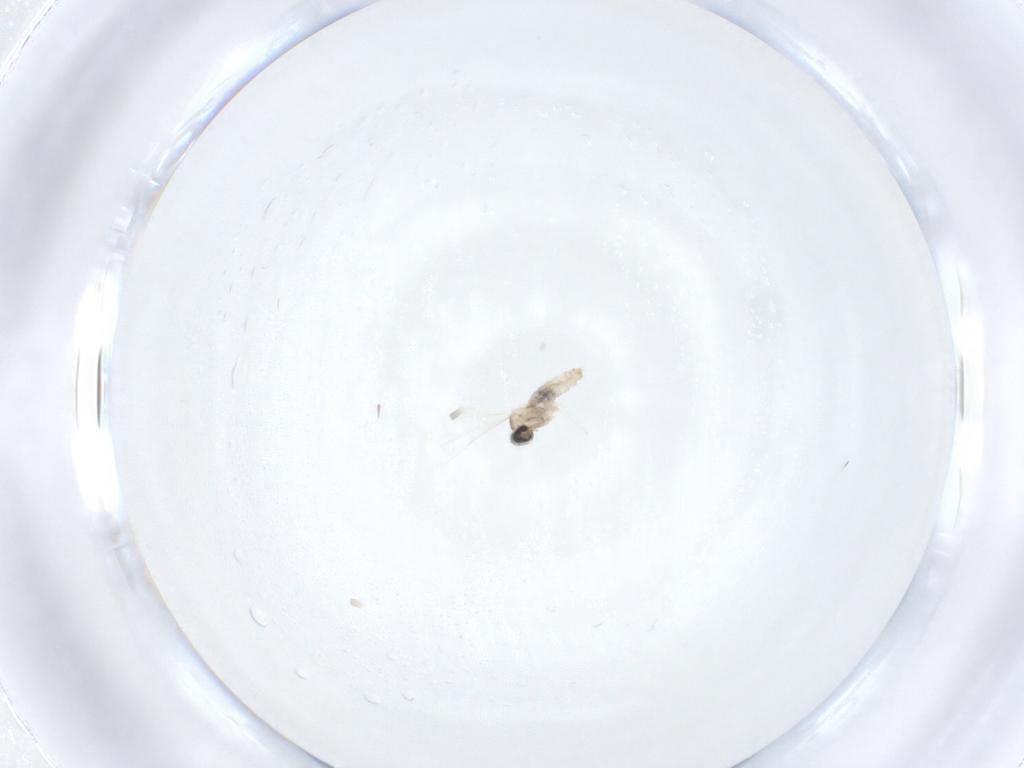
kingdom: Animalia
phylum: Arthropoda
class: Insecta
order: Diptera
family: Cecidomyiidae
